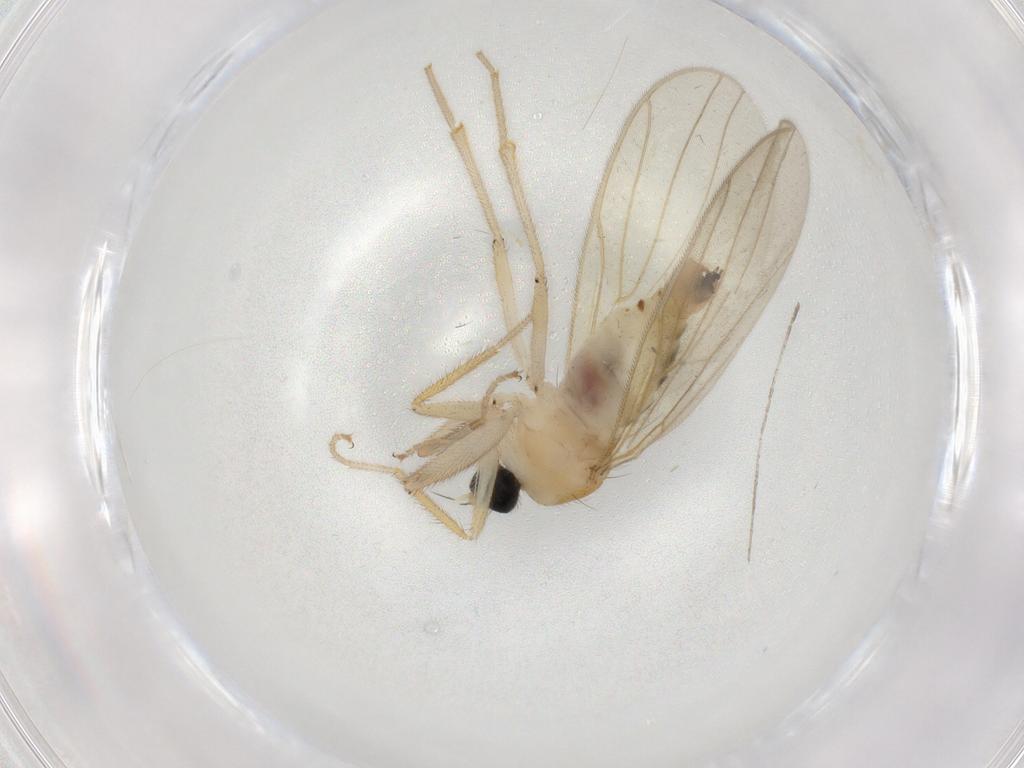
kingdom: Animalia
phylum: Arthropoda
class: Insecta
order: Diptera
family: Hybotidae
